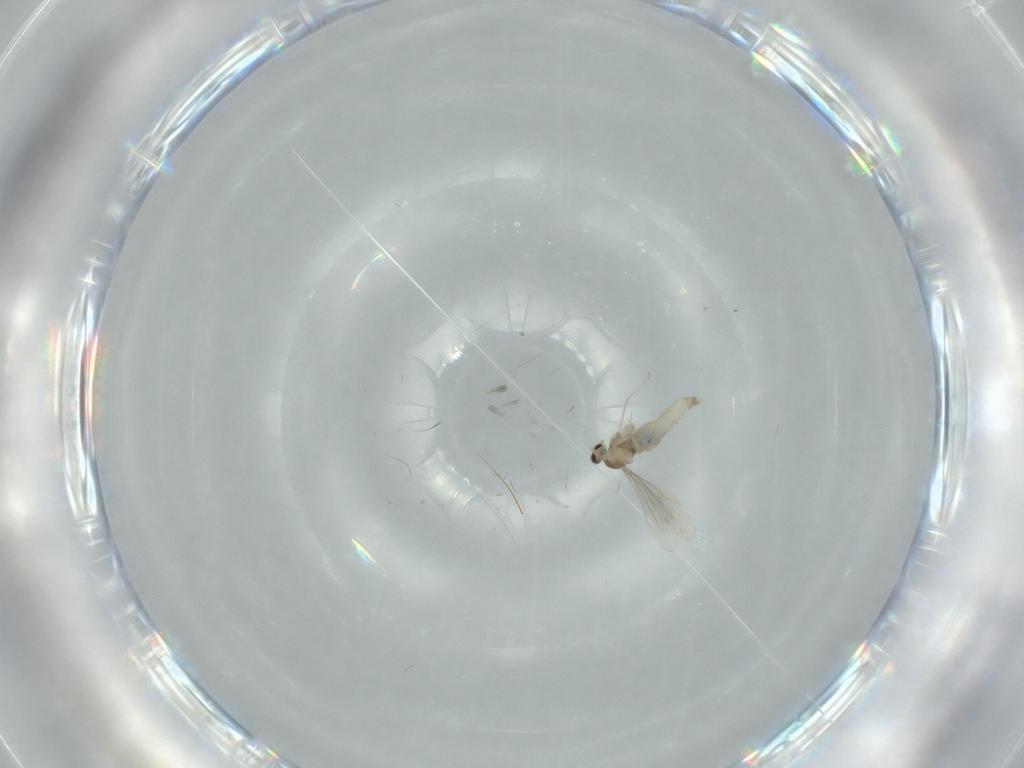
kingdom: Animalia
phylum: Arthropoda
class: Insecta
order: Diptera
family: Cecidomyiidae
